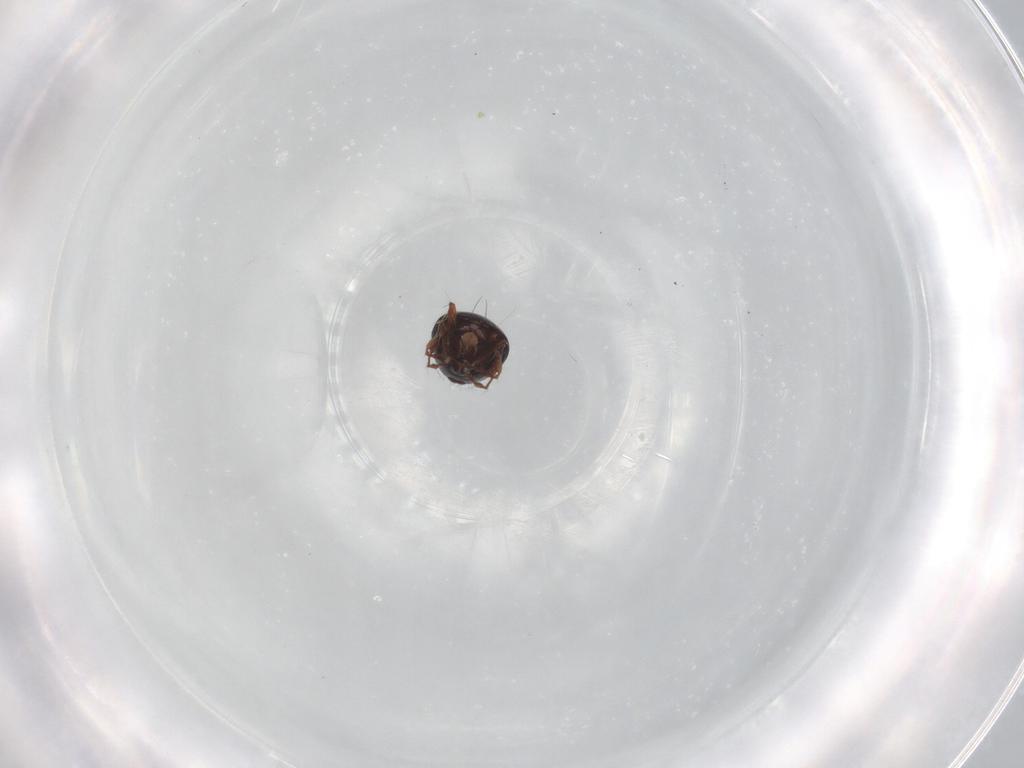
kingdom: Animalia
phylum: Arthropoda
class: Arachnida
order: Sarcoptiformes
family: Ceratoppiidae
